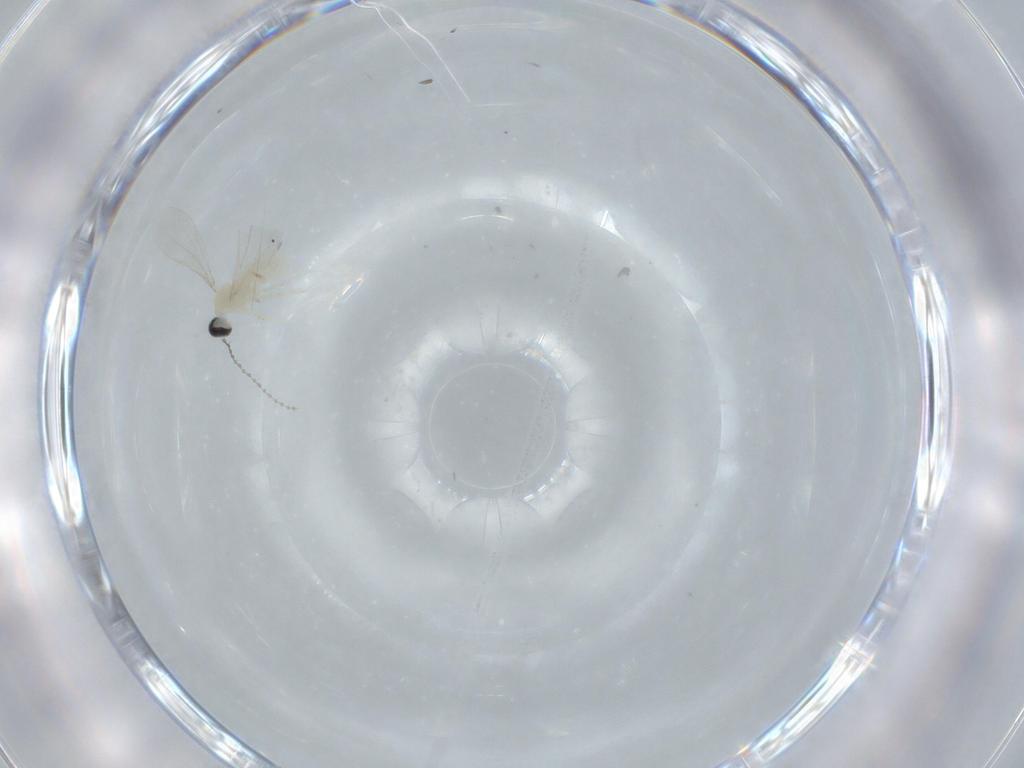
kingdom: Animalia
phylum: Arthropoda
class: Insecta
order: Diptera
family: Cecidomyiidae
